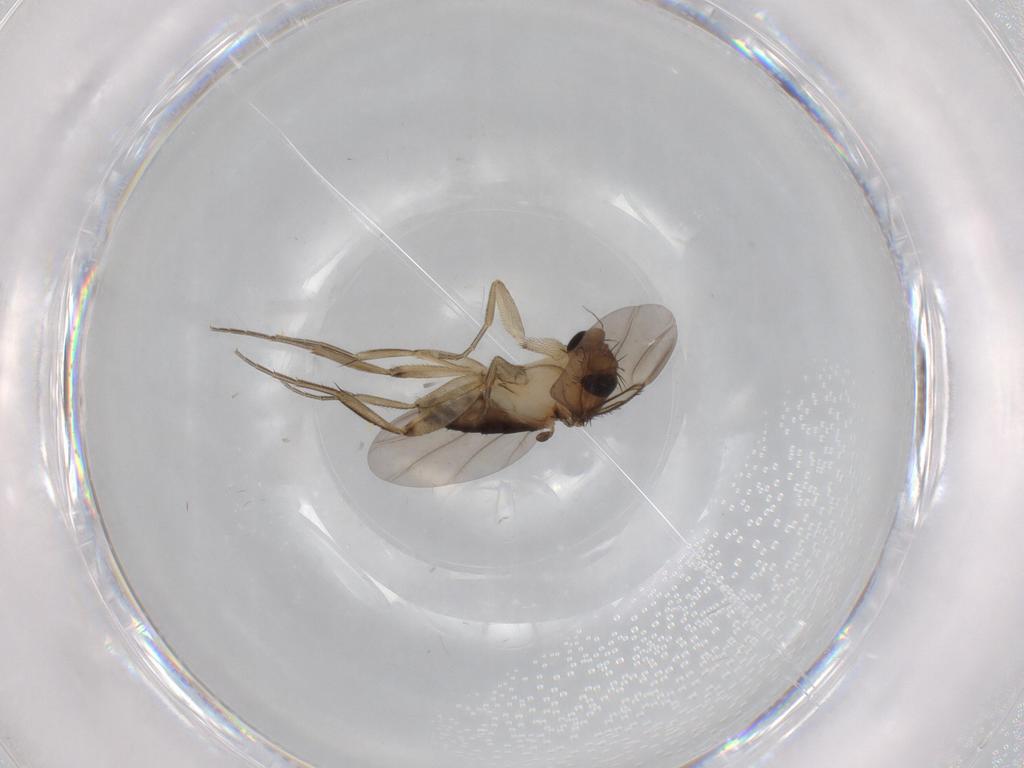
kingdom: Animalia
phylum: Arthropoda
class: Insecta
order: Diptera
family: Phoridae
